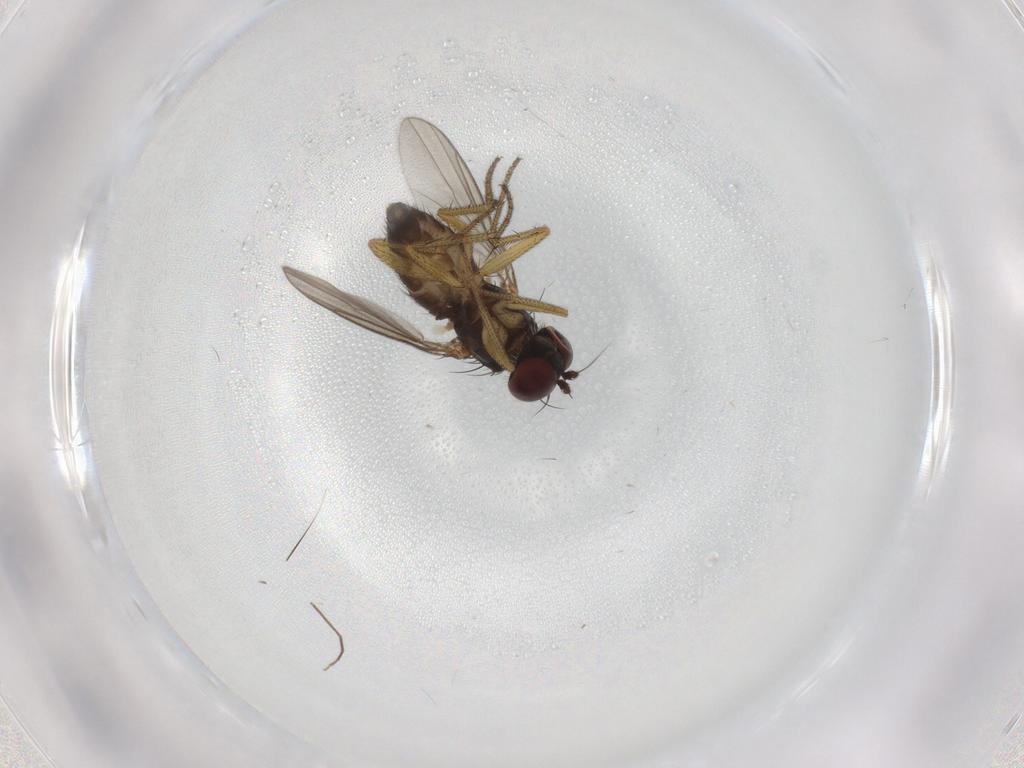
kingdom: Animalia
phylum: Arthropoda
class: Insecta
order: Diptera
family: Dolichopodidae
